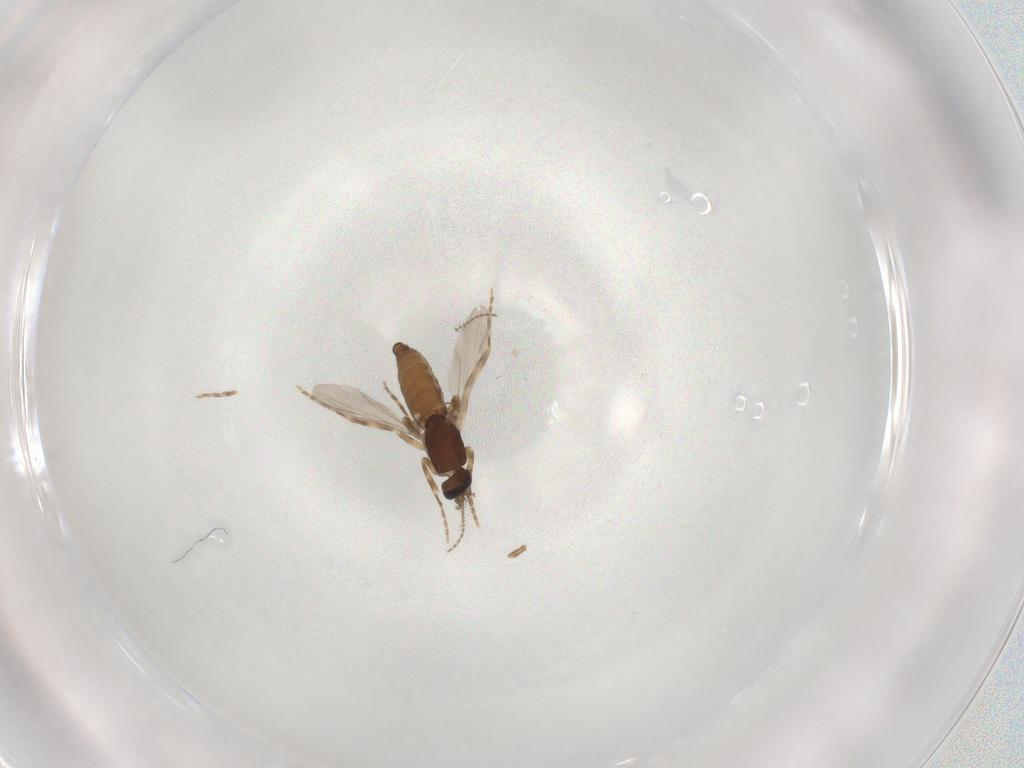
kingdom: Animalia
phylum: Arthropoda
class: Insecta
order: Diptera
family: Ceratopogonidae
